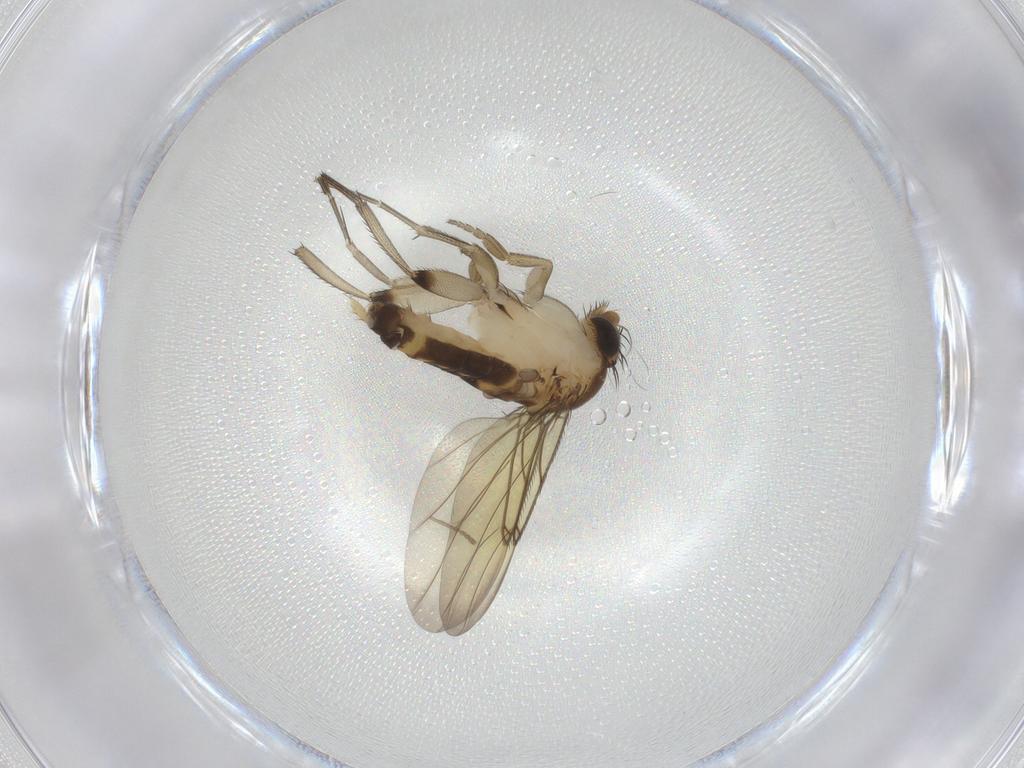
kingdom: Animalia
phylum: Arthropoda
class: Insecta
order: Diptera
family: Phoridae
